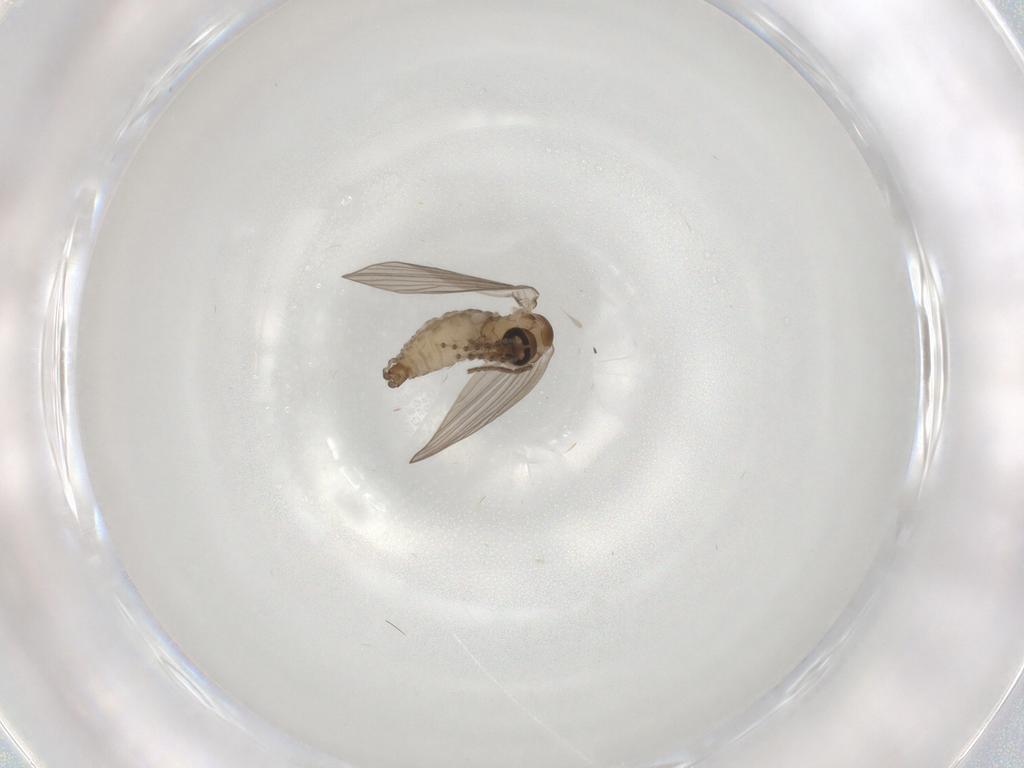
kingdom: Animalia
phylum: Arthropoda
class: Insecta
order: Diptera
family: Psychodidae
